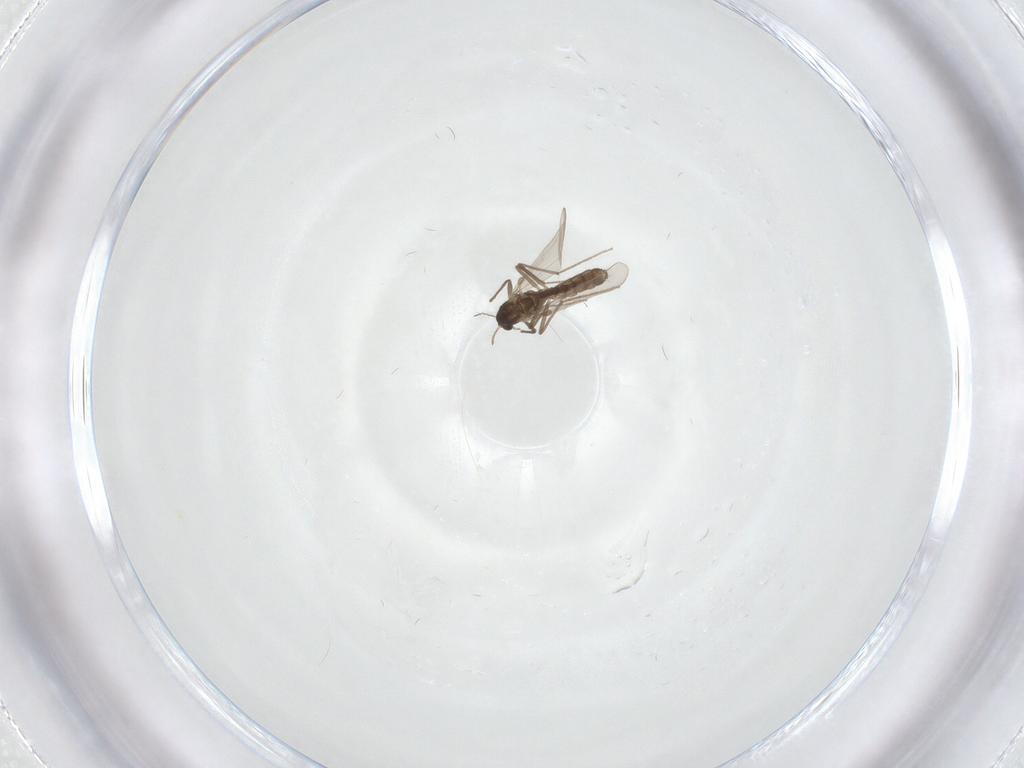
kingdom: Animalia
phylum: Arthropoda
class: Insecta
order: Diptera
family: Chironomidae
